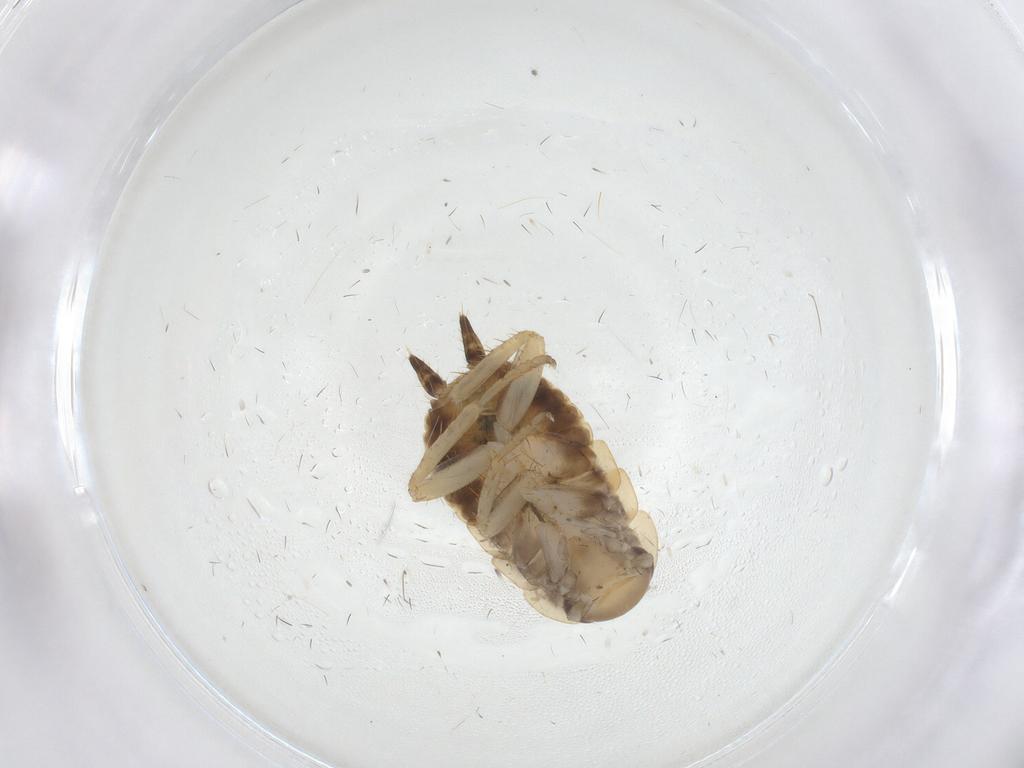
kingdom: Animalia
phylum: Arthropoda
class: Insecta
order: Blattodea
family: Ectobiidae
